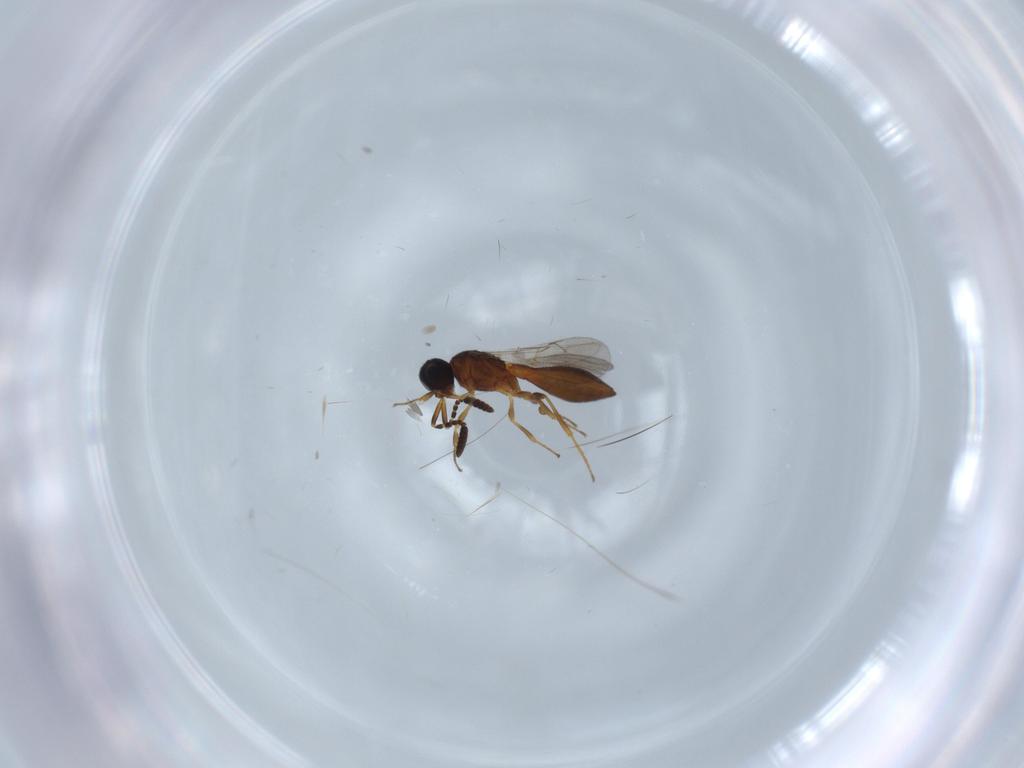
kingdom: Animalia
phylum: Arthropoda
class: Insecta
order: Hymenoptera
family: Scelionidae
